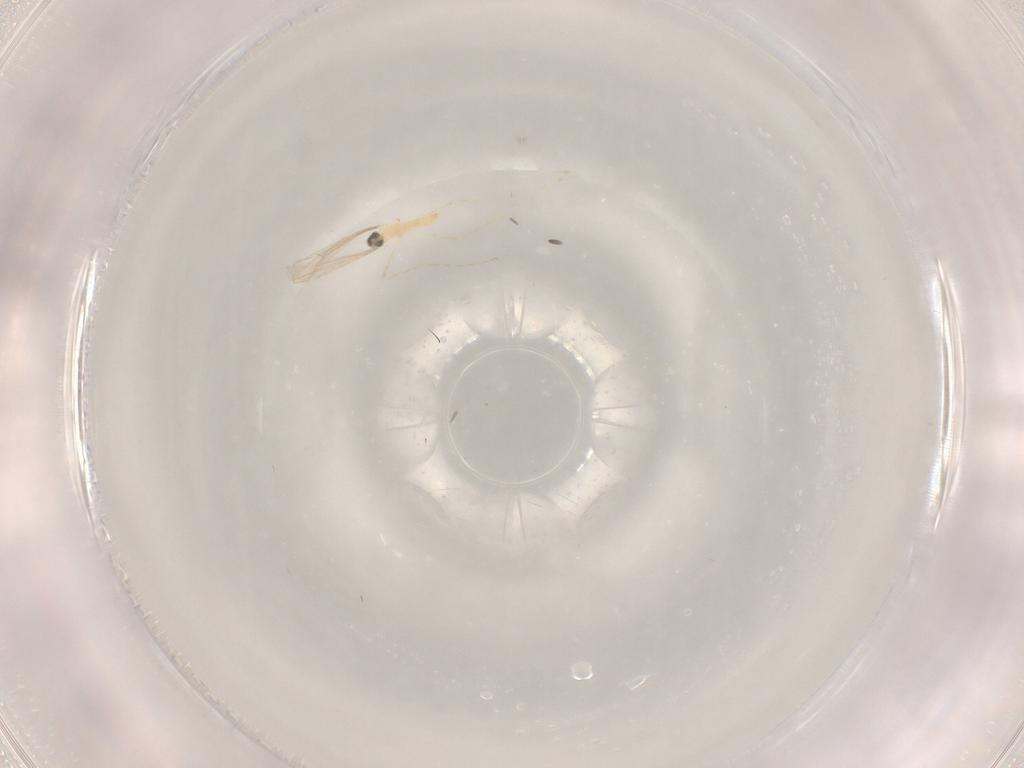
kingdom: Animalia
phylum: Arthropoda
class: Insecta
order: Diptera
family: Cecidomyiidae
